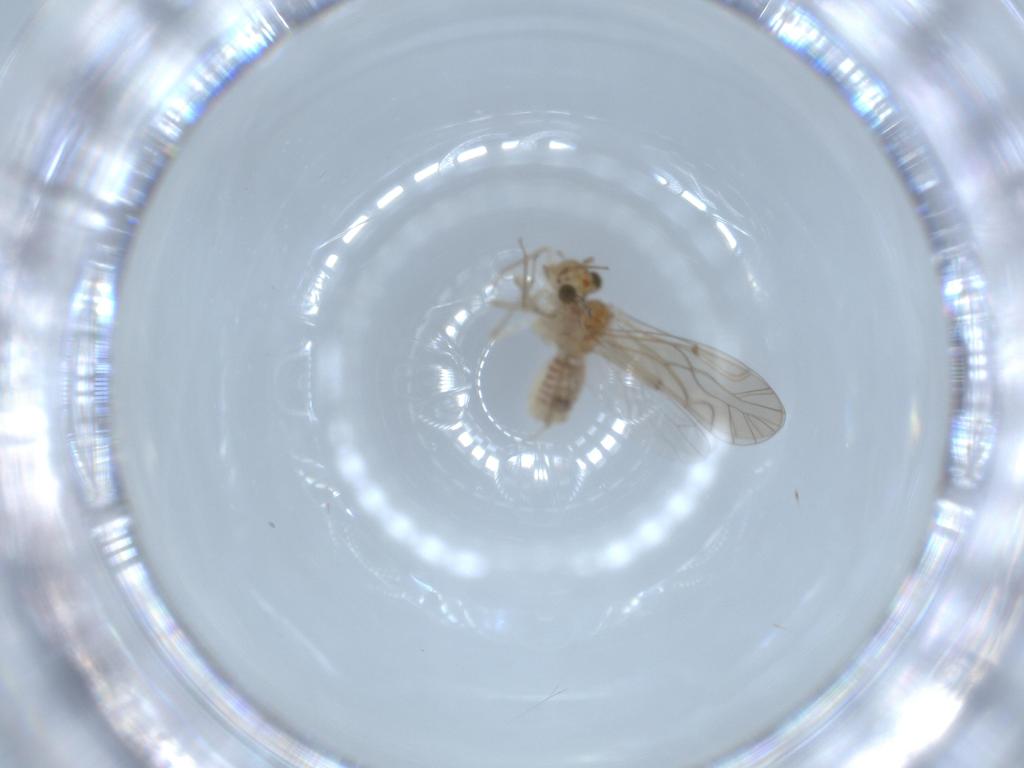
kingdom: Animalia
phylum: Arthropoda
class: Insecta
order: Psocodea
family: Lachesillidae
